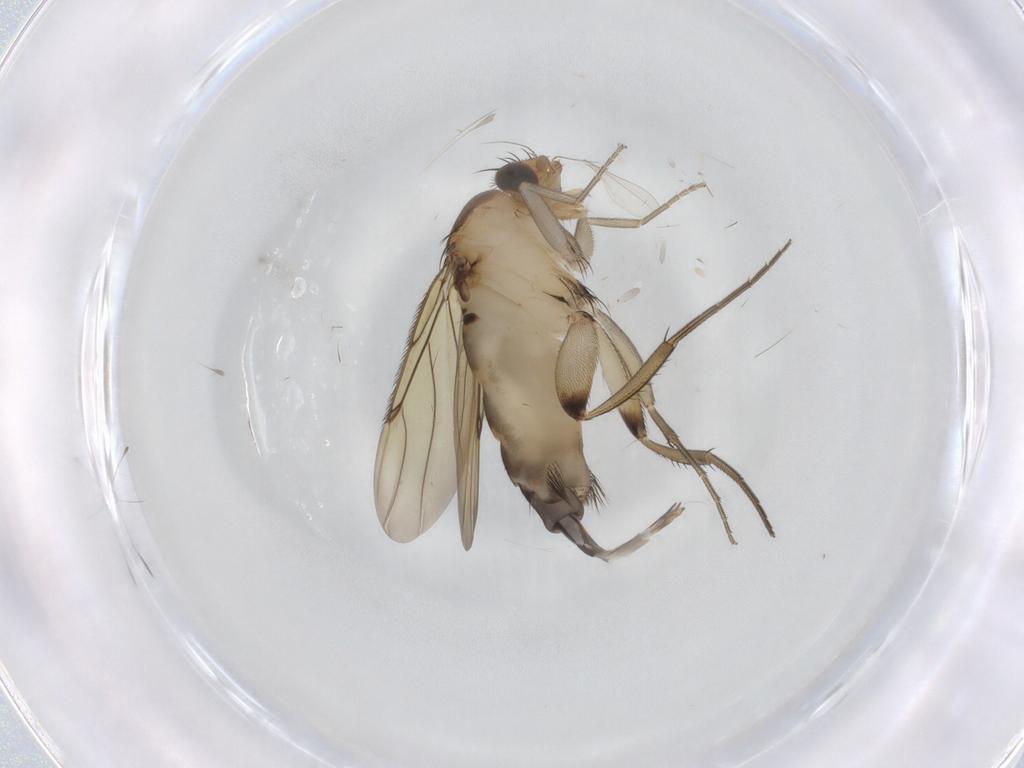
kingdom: Animalia
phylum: Arthropoda
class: Insecta
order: Diptera
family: Phoridae
